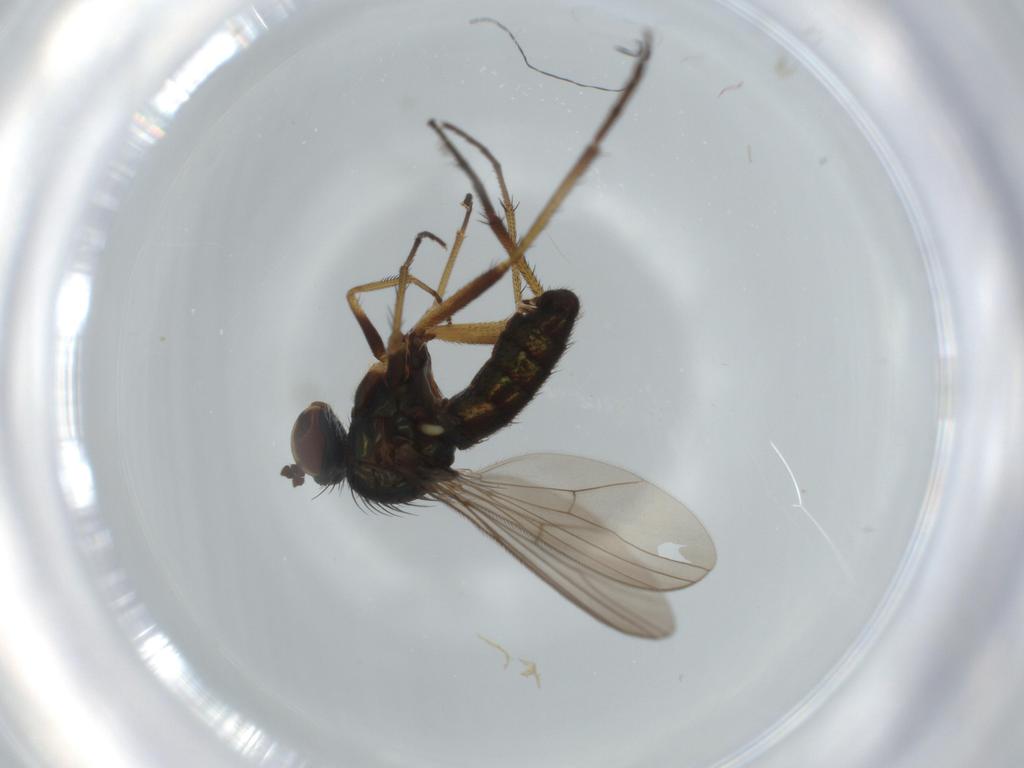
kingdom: Animalia
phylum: Arthropoda
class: Insecta
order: Diptera
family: Dolichopodidae
